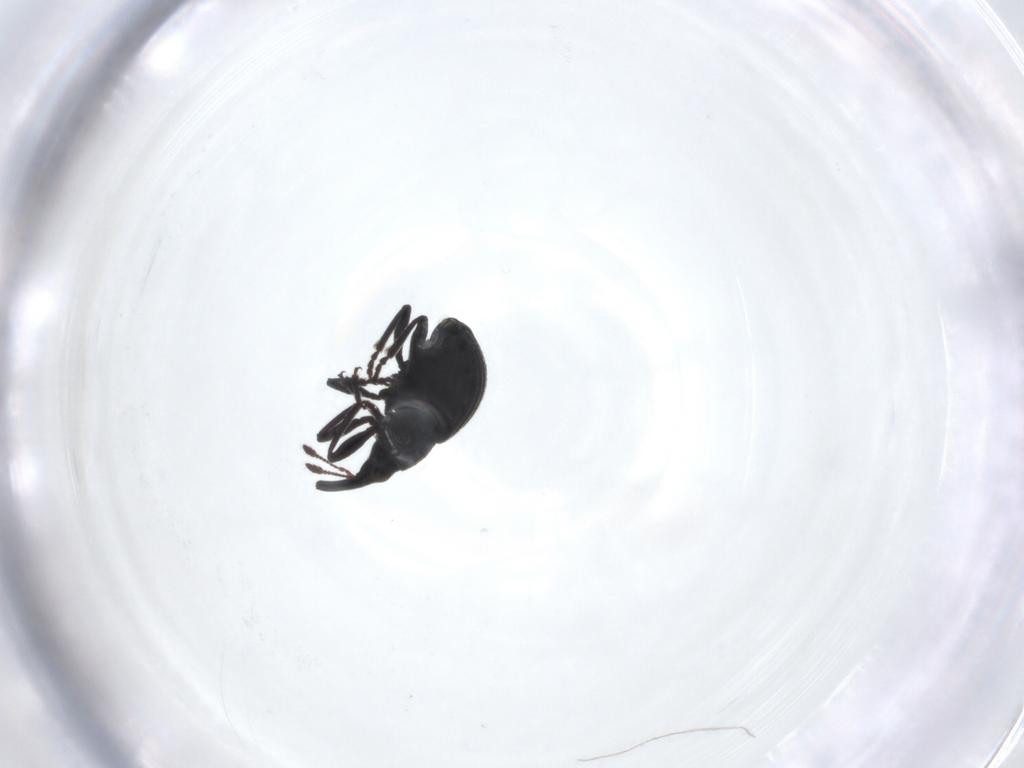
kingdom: Animalia
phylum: Arthropoda
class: Insecta
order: Coleoptera
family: Brentidae
